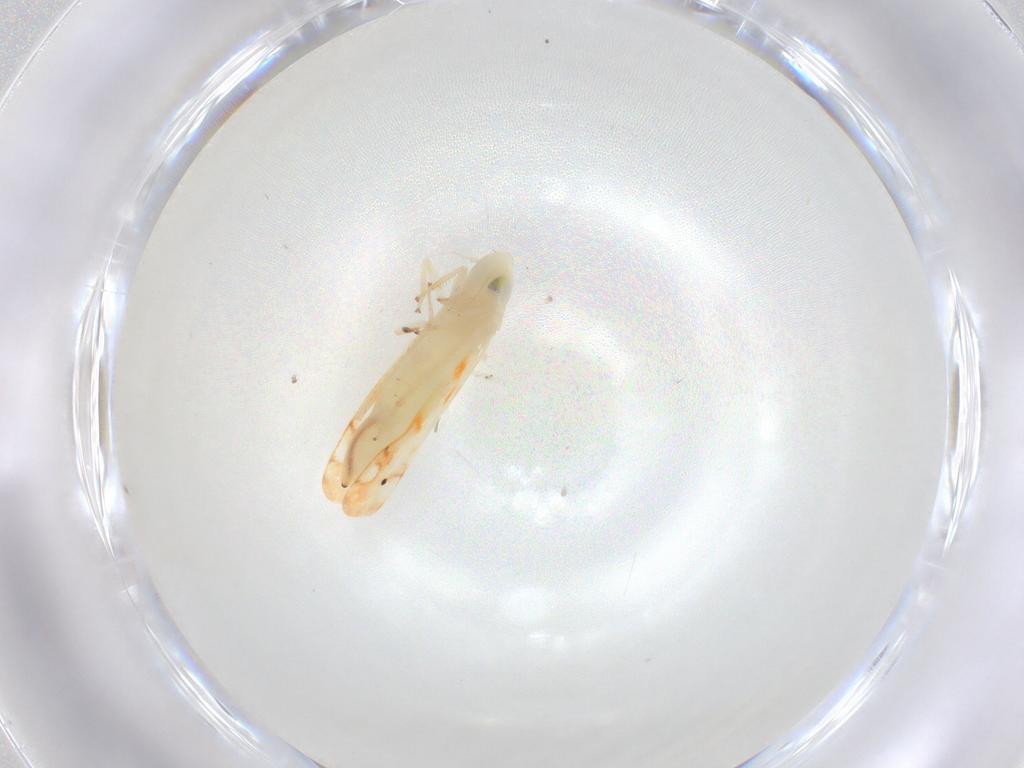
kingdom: Animalia
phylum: Arthropoda
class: Insecta
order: Hemiptera
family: Cicadellidae
